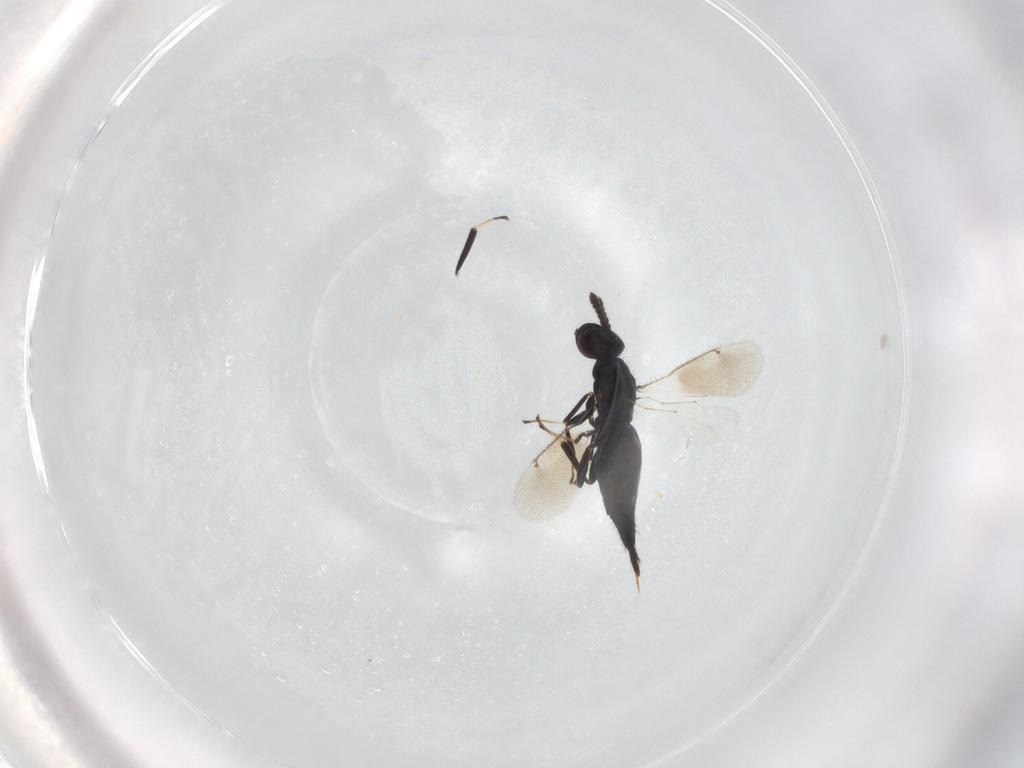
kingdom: Animalia
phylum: Arthropoda
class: Insecta
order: Hymenoptera
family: Eulophidae
